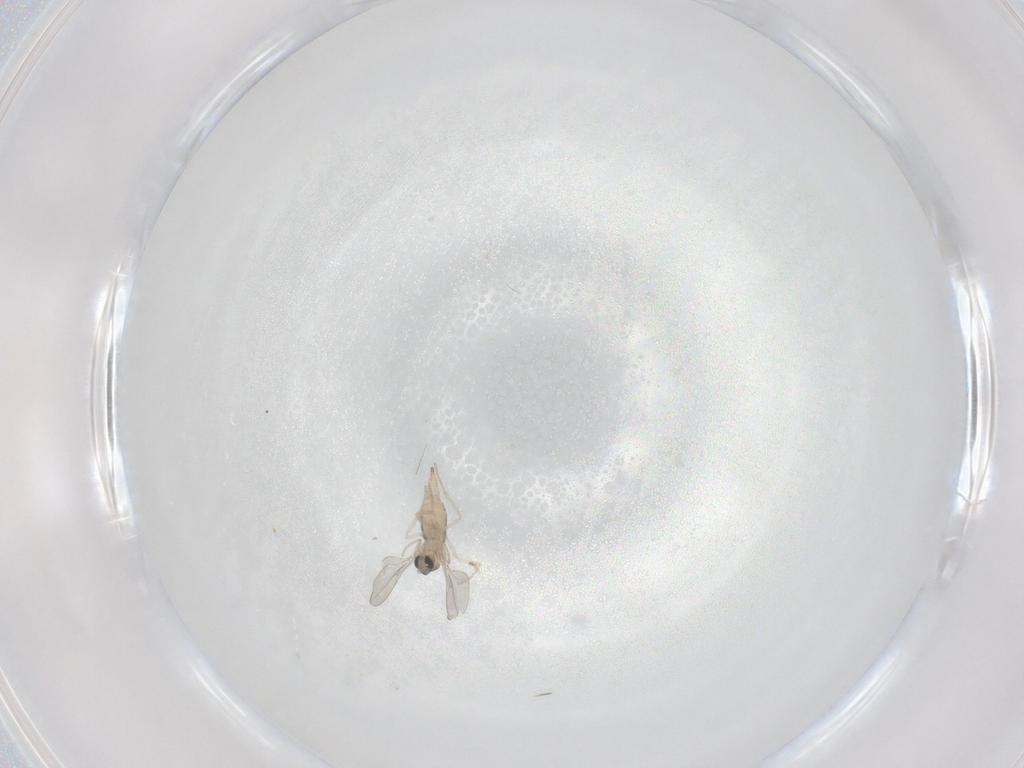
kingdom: Animalia
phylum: Arthropoda
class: Insecta
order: Diptera
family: Cecidomyiidae
